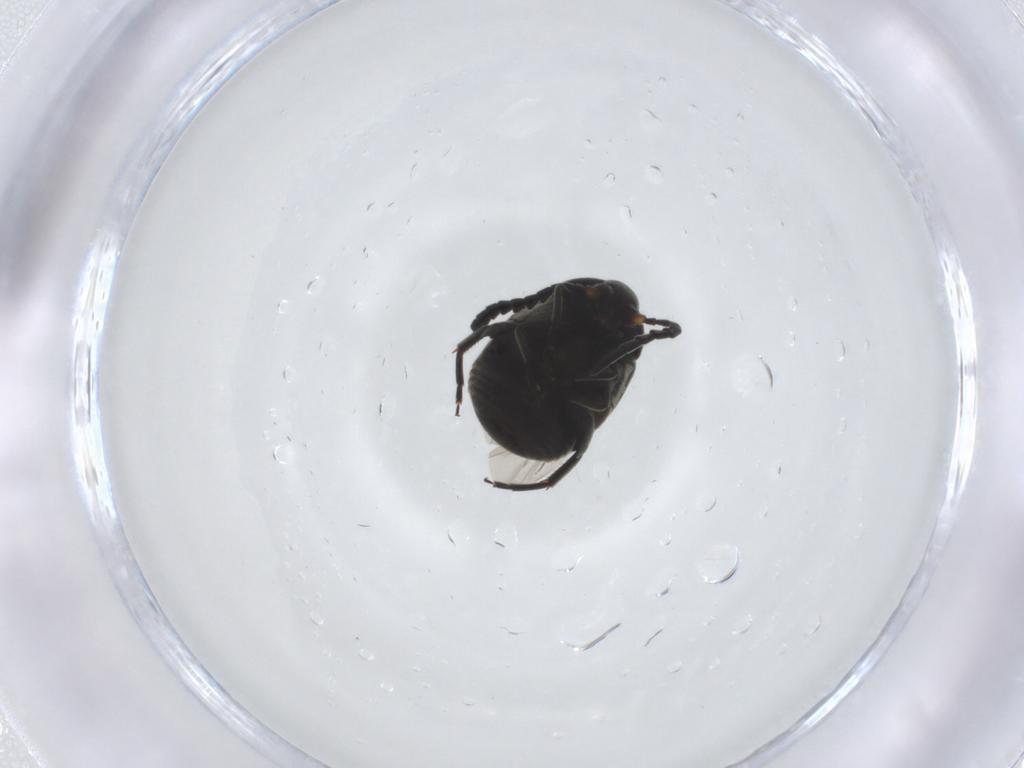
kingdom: Animalia
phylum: Arthropoda
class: Insecta
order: Coleoptera
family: Chrysomelidae
